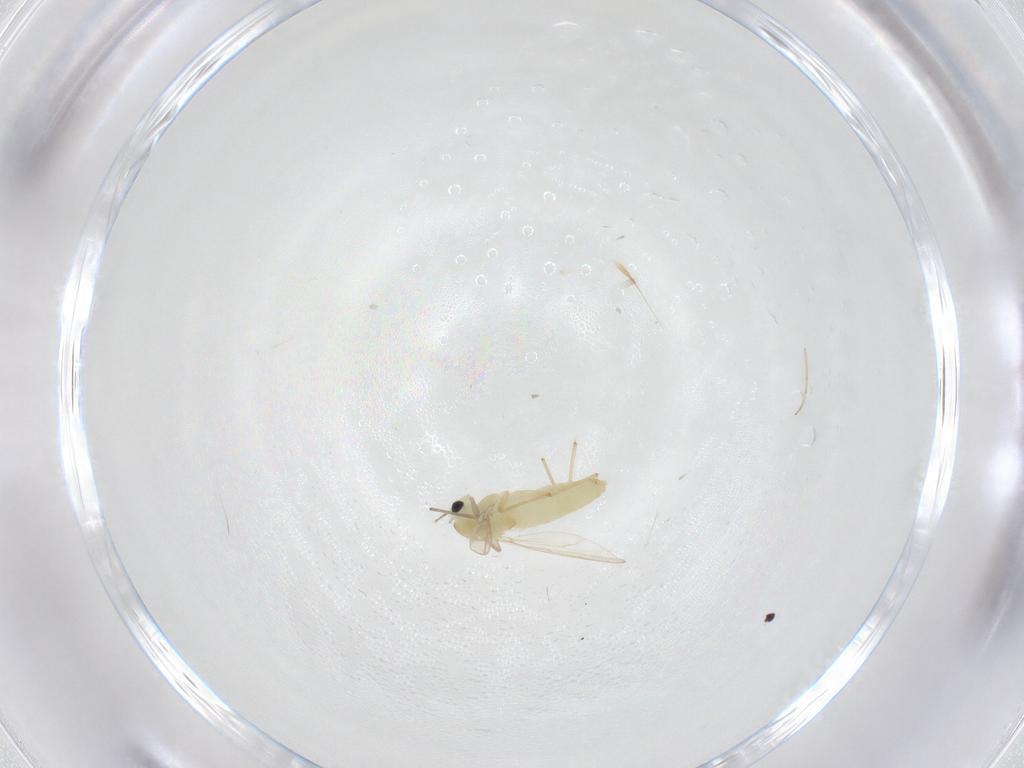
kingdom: Animalia
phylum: Arthropoda
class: Insecta
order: Diptera
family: Chironomidae
